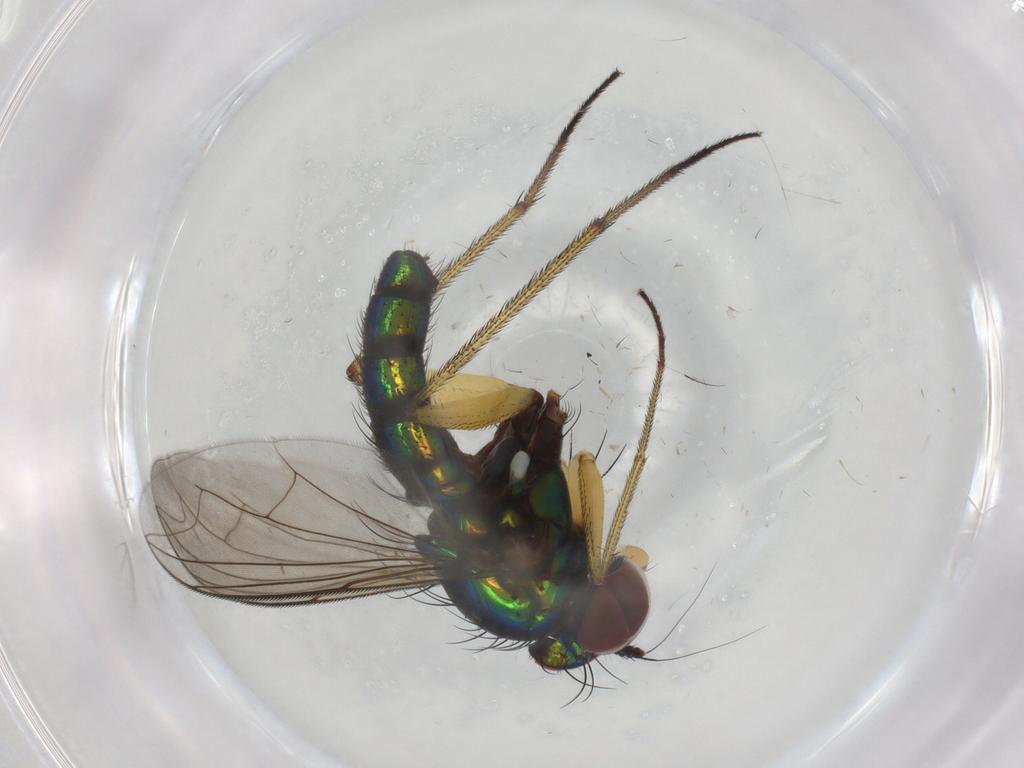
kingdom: Animalia
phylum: Arthropoda
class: Insecta
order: Diptera
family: Dolichopodidae
